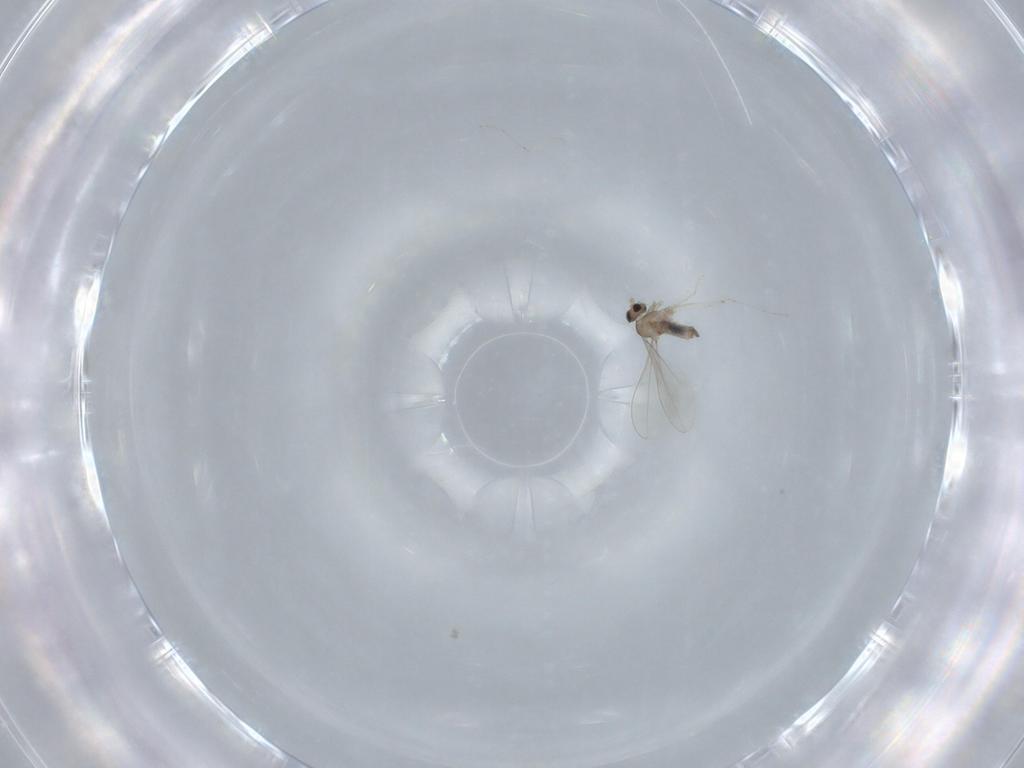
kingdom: Animalia
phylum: Arthropoda
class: Insecta
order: Diptera
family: Cecidomyiidae
